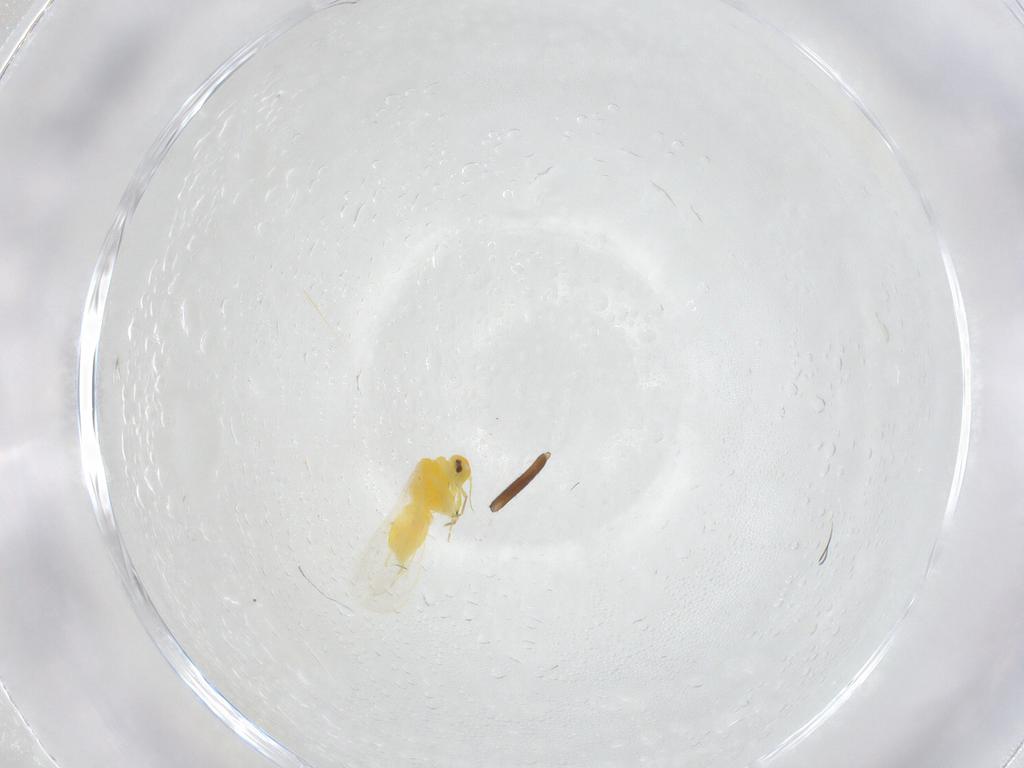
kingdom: Animalia
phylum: Arthropoda
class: Insecta
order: Hemiptera
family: Aleyrodidae
